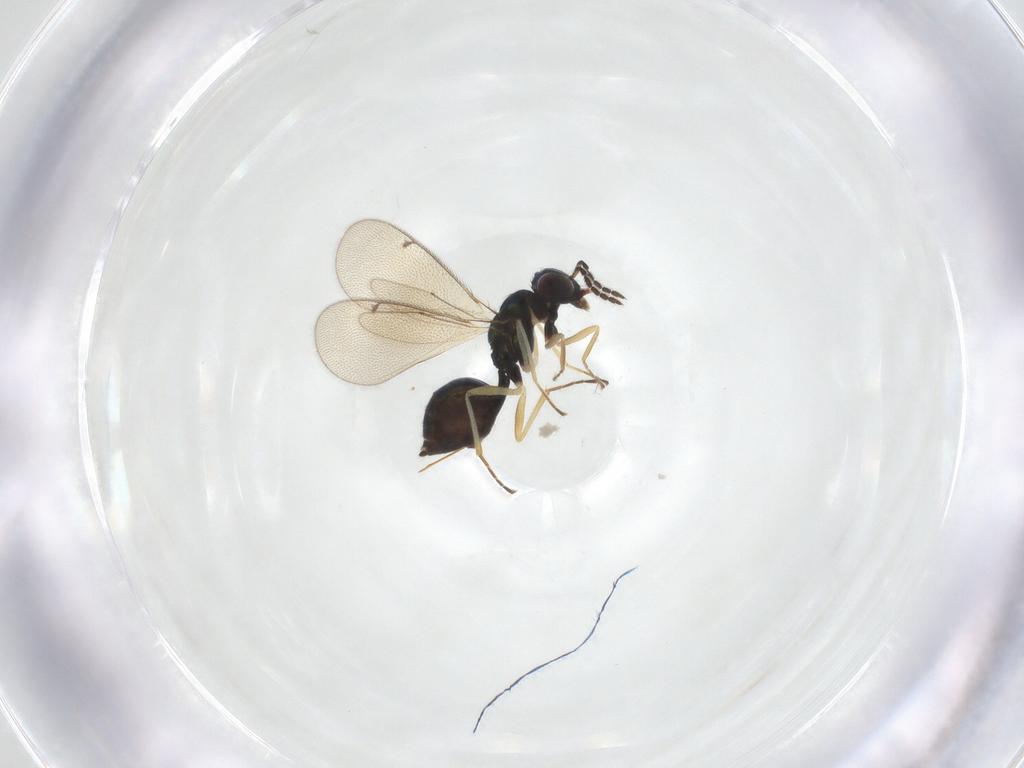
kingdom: Animalia
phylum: Arthropoda
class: Insecta
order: Hymenoptera
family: Eulophidae
